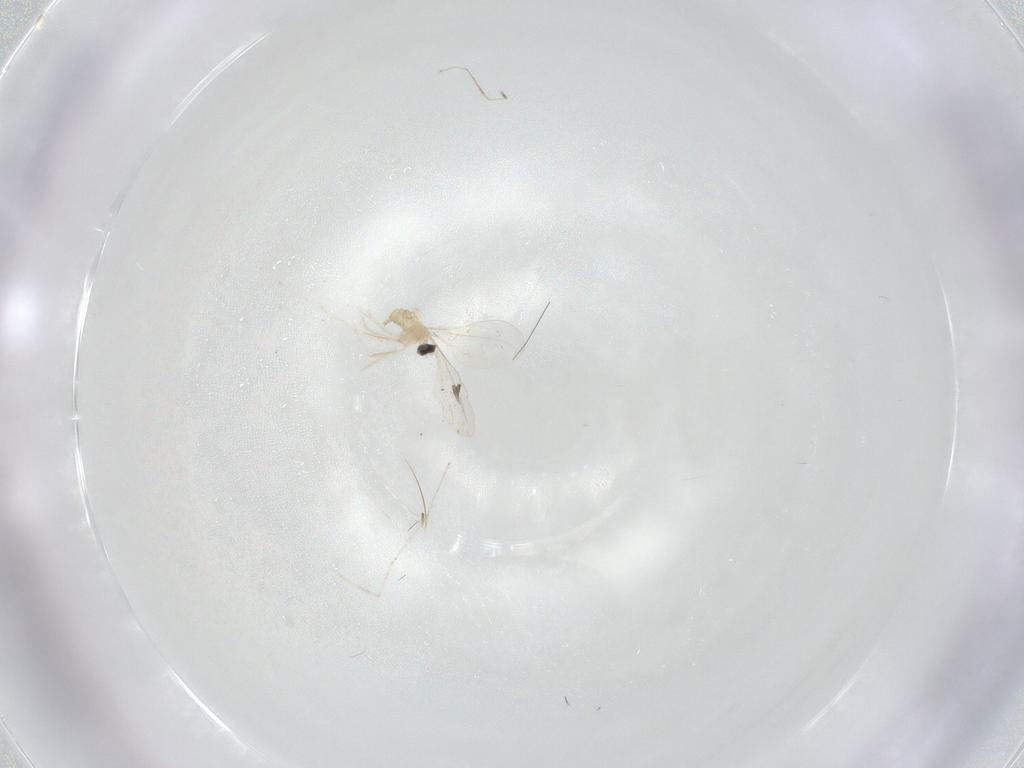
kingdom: Animalia
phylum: Arthropoda
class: Insecta
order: Diptera
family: Cecidomyiidae
